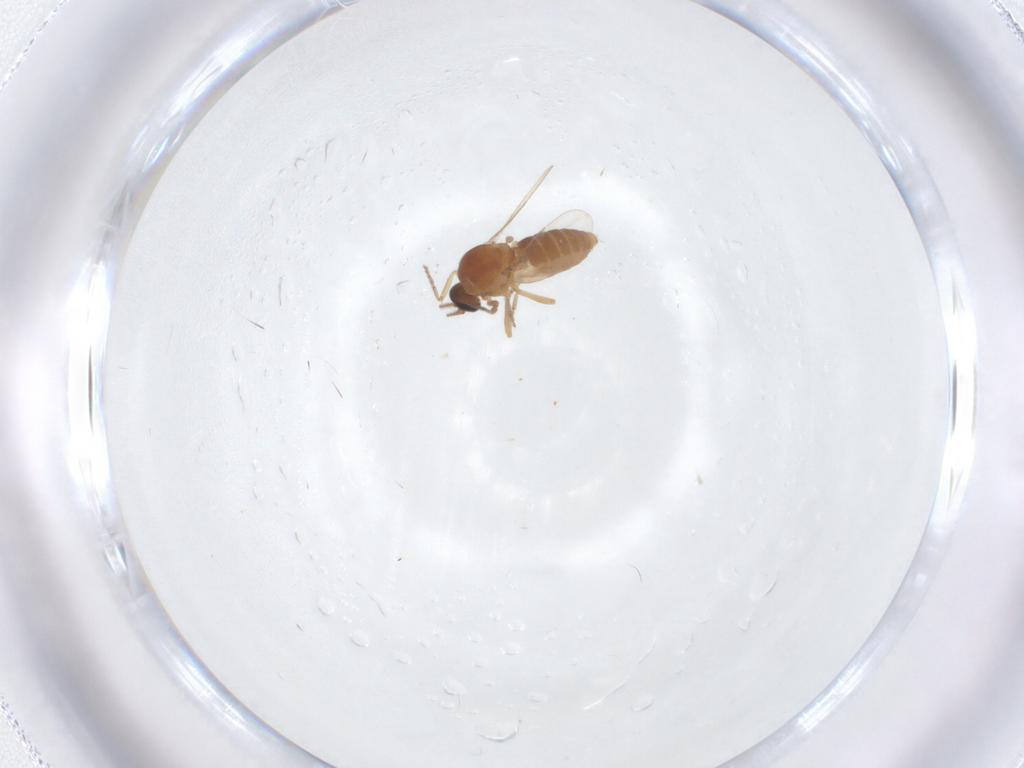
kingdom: Animalia
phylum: Arthropoda
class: Insecta
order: Diptera
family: Ceratopogonidae
